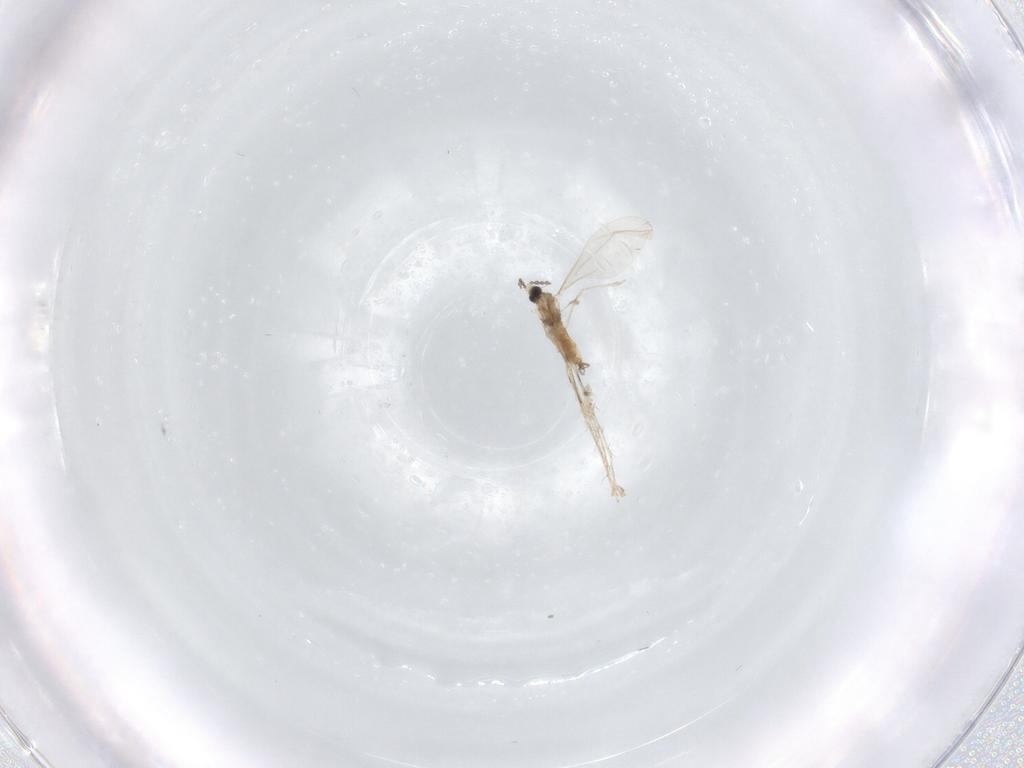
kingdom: Animalia
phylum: Arthropoda
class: Insecta
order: Diptera
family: Cecidomyiidae
